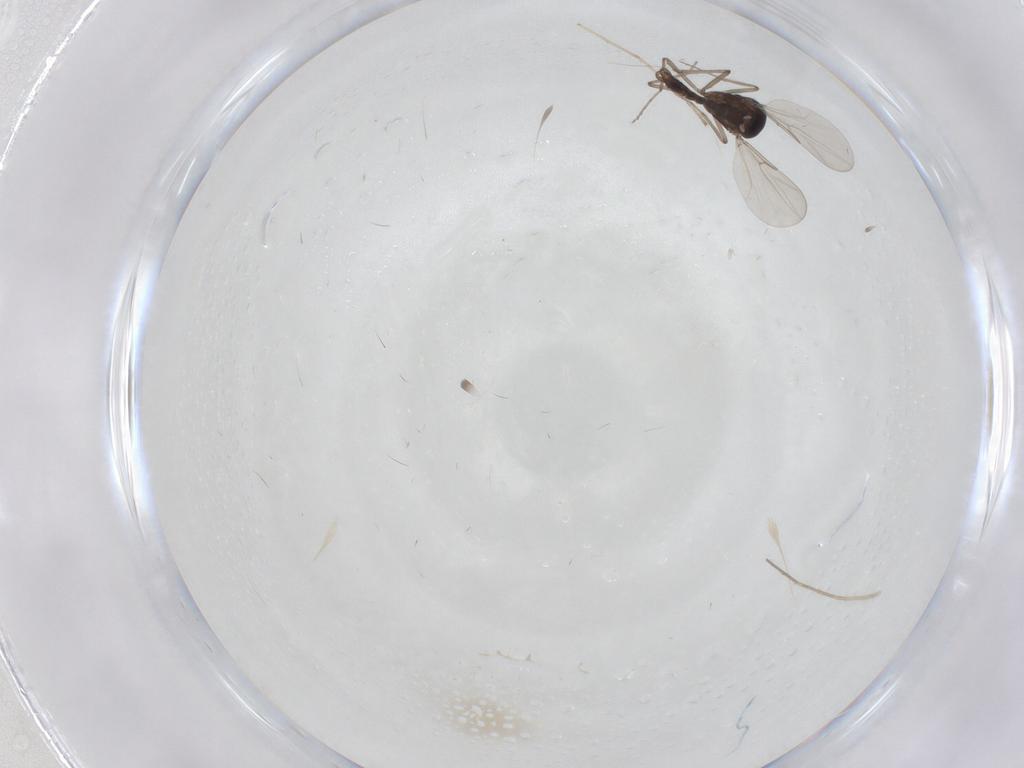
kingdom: Animalia
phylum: Arthropoda
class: Insecta
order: Diptera
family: Chironomidae
